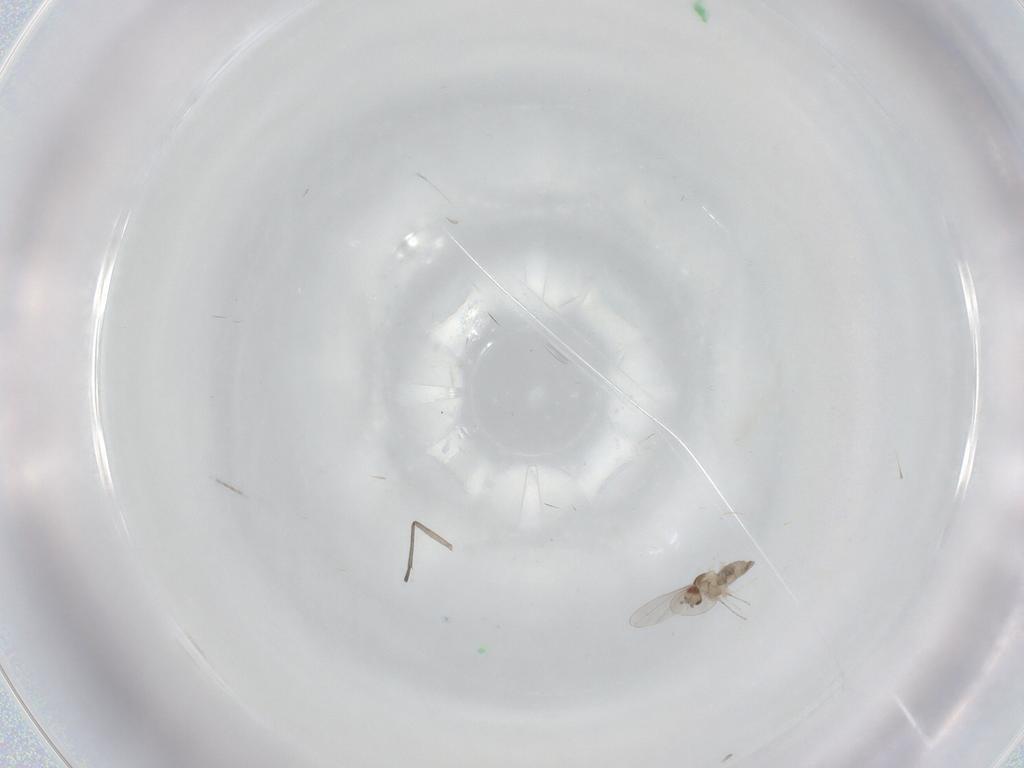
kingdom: Animalia
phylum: Arthropoda
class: Insecta
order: Diptera
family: Cecidomyiidae
